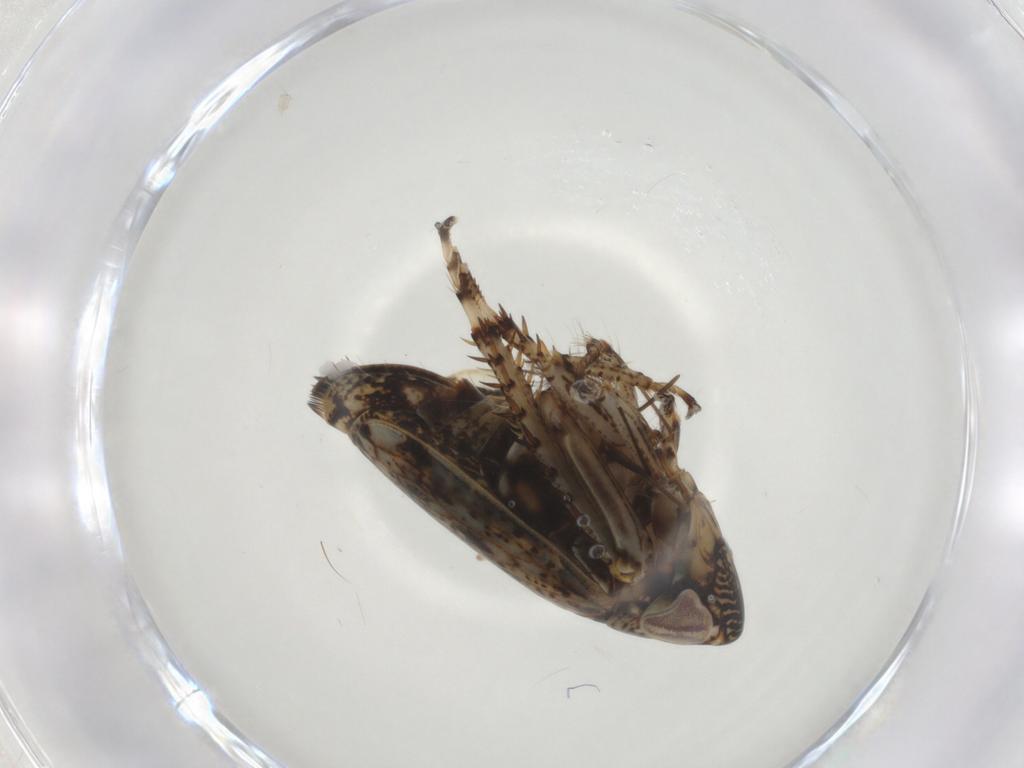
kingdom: Animalia
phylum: Arthropoda
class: Insecta
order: Hemiptera
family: Cicadellidae
